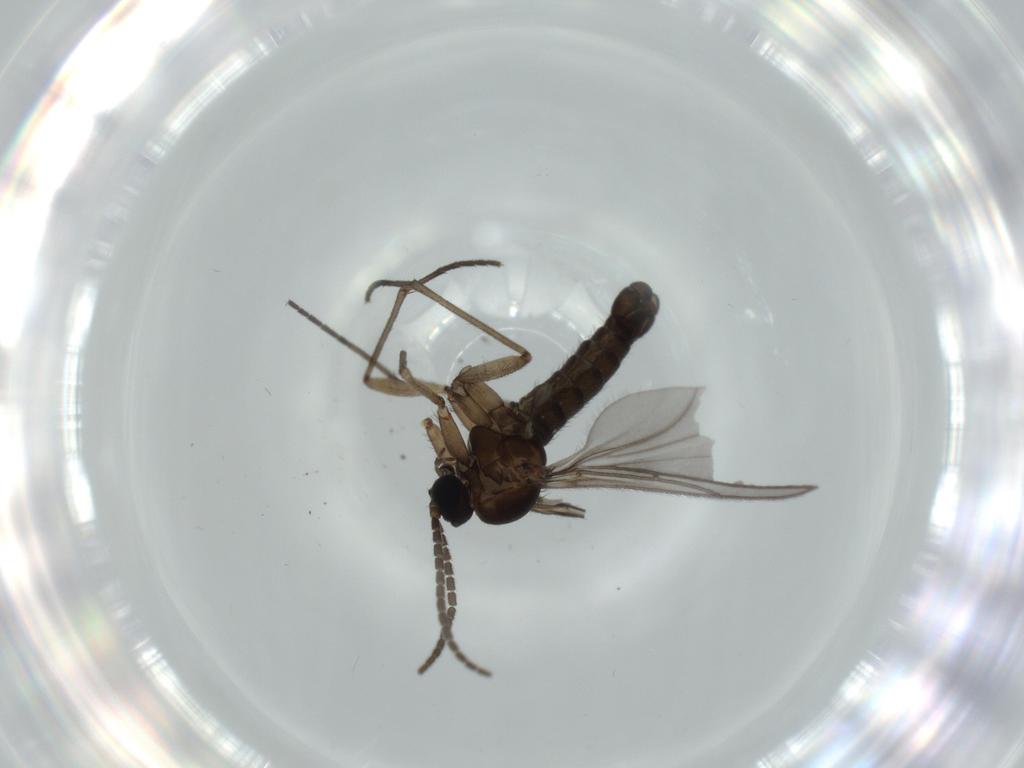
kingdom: Animalia
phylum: Arthropoda
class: Insecta
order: Diptera
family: Sciaridae
